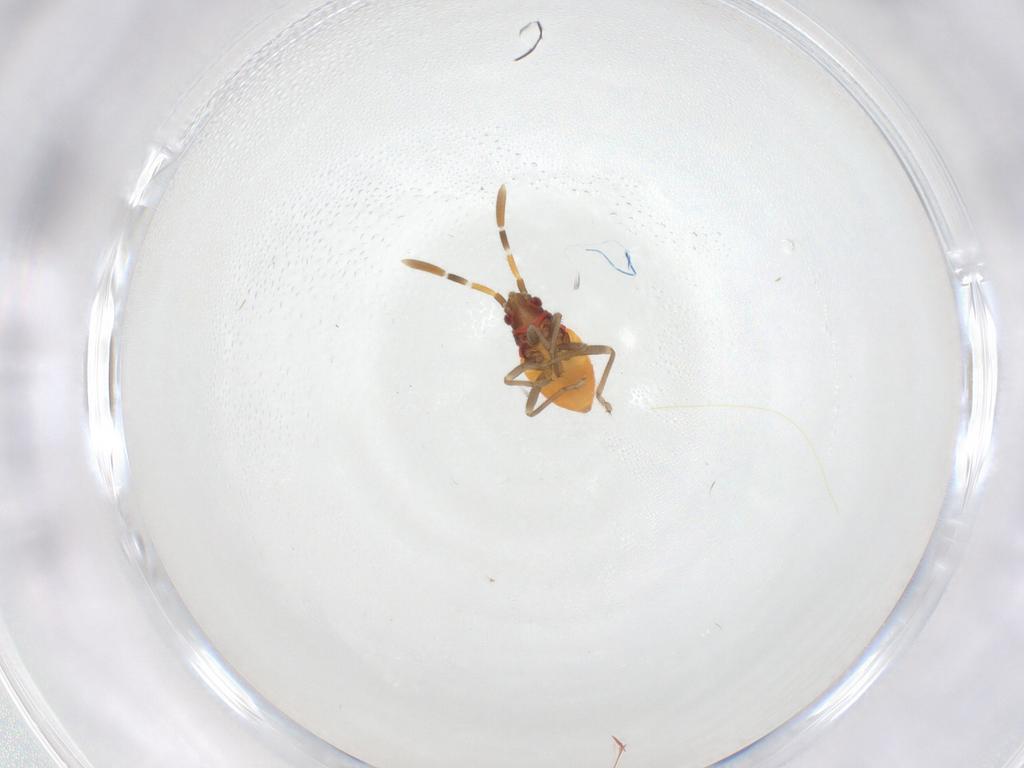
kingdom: Animalia
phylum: Arthropoda
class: Insecta
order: Hemiptera
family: Rhyparochromidae
